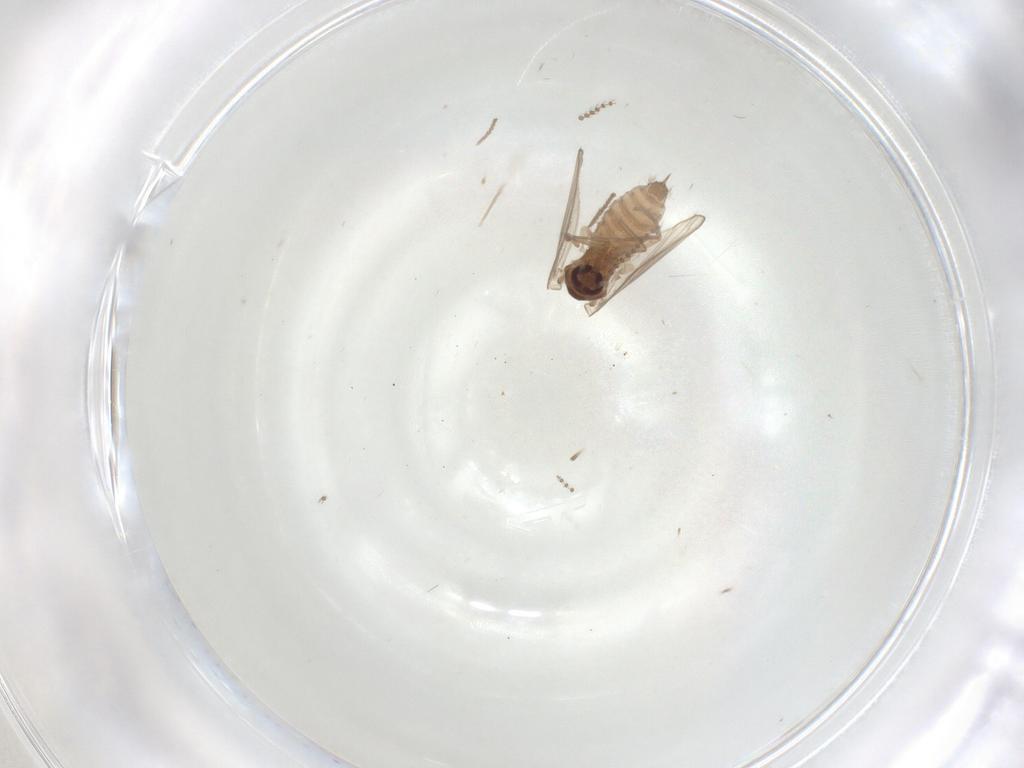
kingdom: Animalia
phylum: Arthropoda
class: Insecta
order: Diptera
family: Psychodidae
